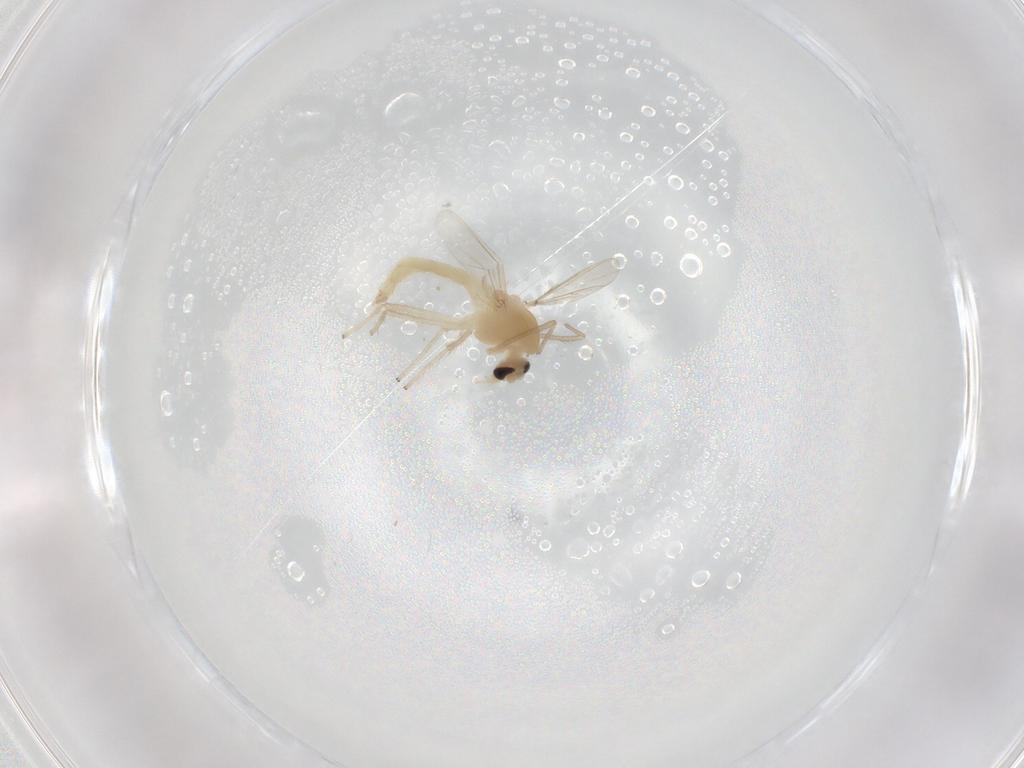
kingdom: Animalia
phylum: Arthropoda
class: Insecta
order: Diptera
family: Chironomidae
